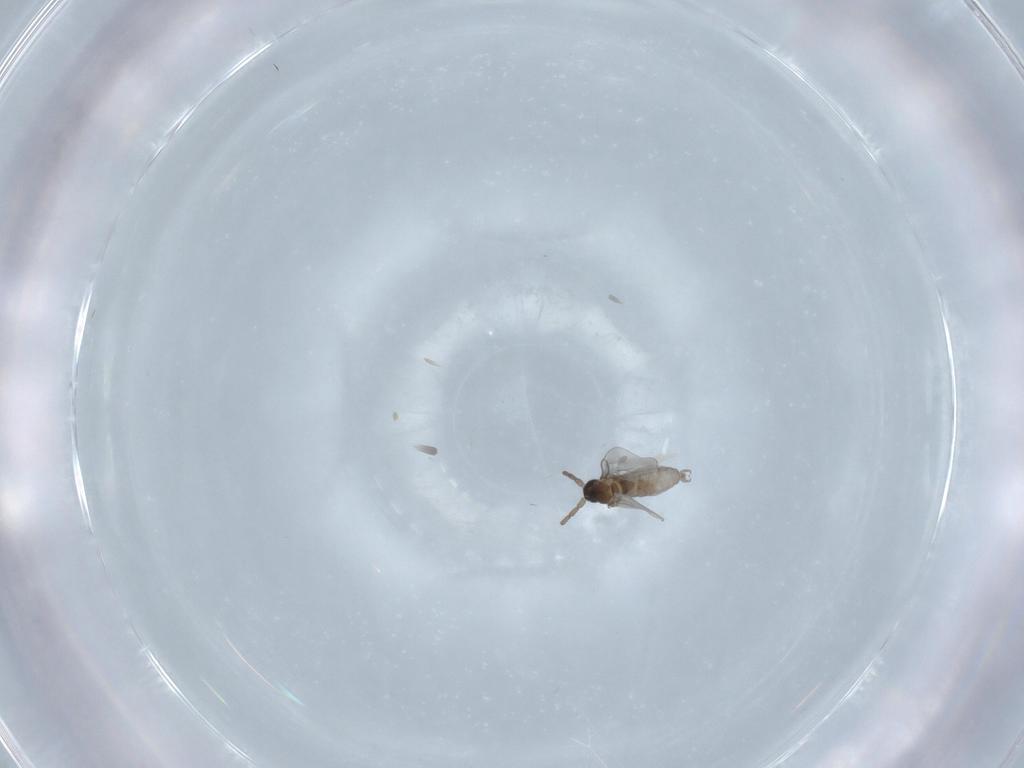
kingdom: Animalia
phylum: Arthropoda
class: Insecta
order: Diptera
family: Cecidomyiidae
